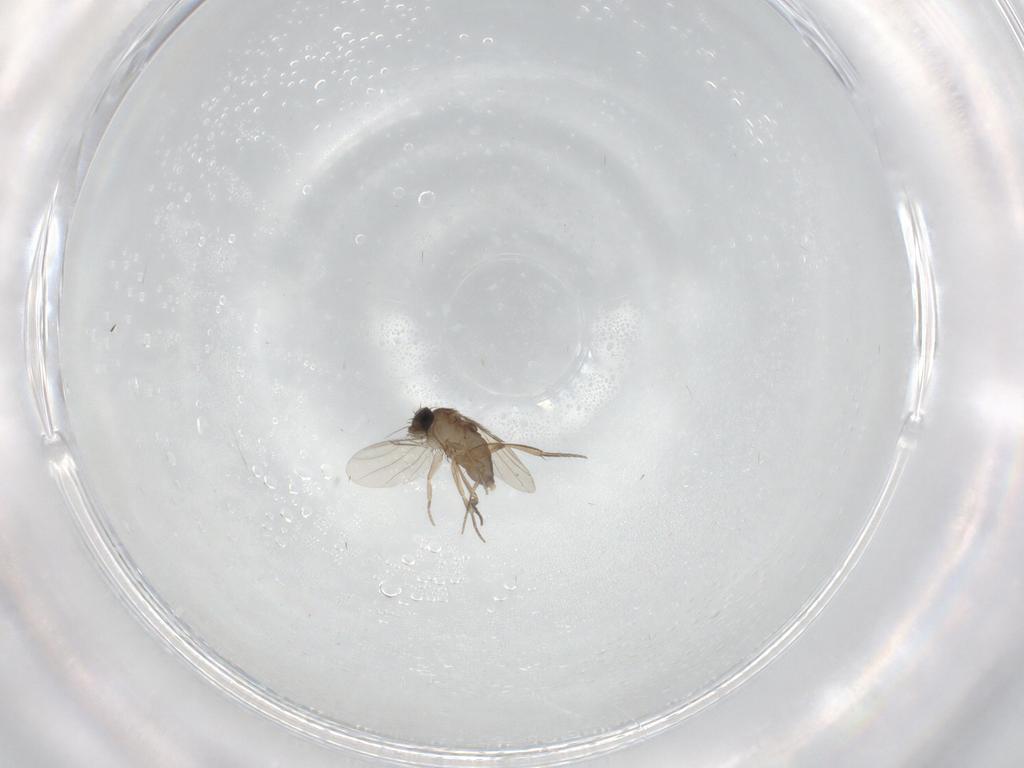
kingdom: Animalia
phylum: Arthropoda
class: Insecta
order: Diptera
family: Phoridae
